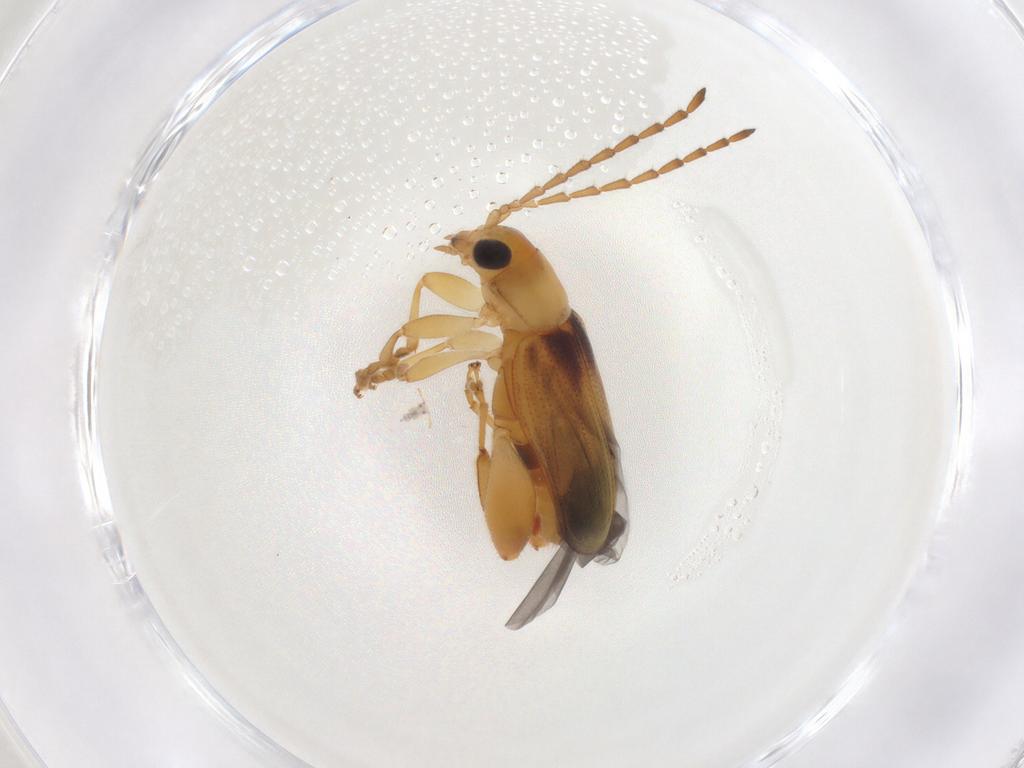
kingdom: Animalia
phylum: Arthropoda
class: Insecta
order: Coleoptera
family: Chrysomelidae
